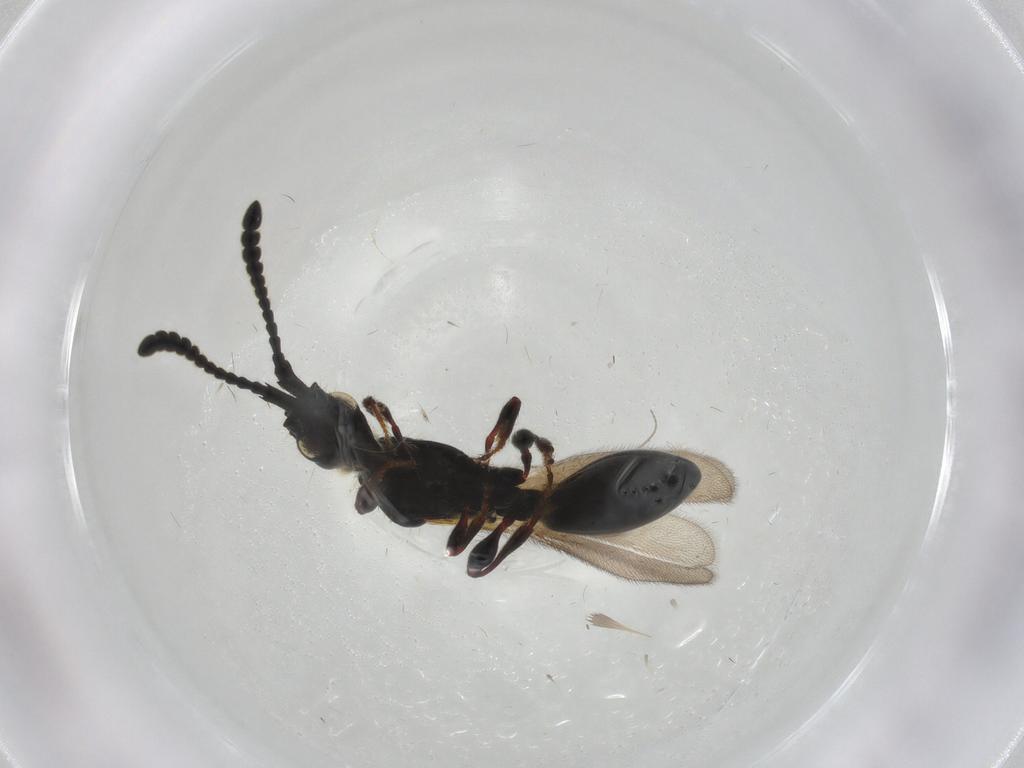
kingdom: Animalia
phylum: Arthropoda
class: Insecta
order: Hymenoptera
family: Diapriidae
